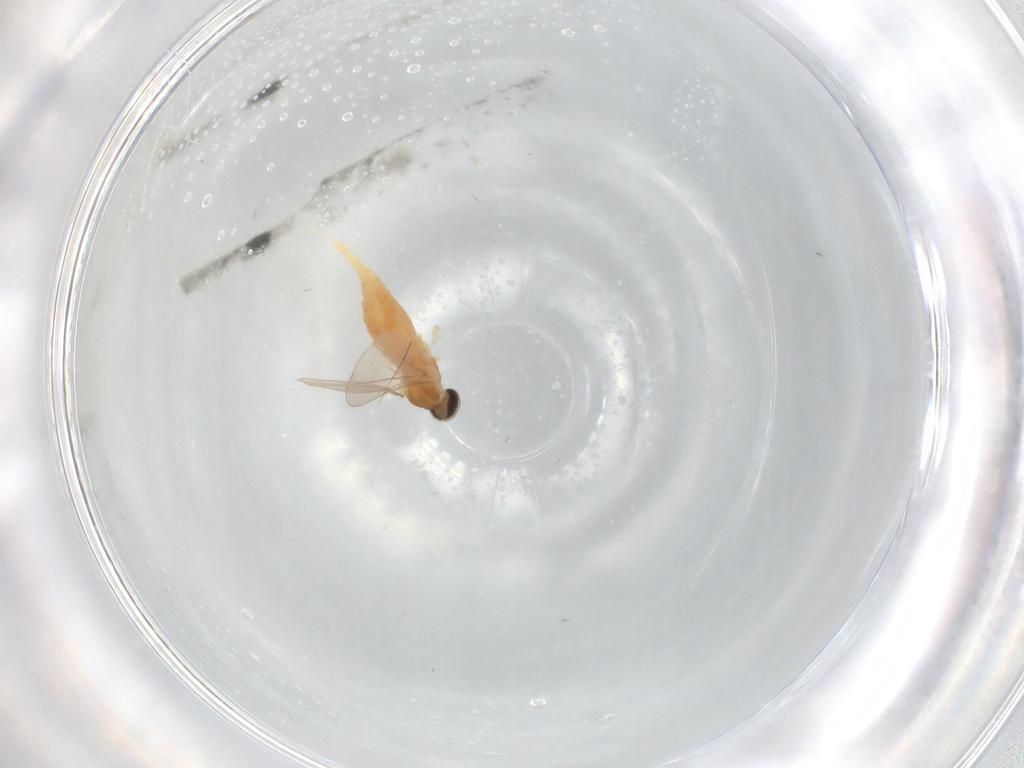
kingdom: Animalia
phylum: Arthropoda
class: Insecta
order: Diptera
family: Cecidomyiidae
